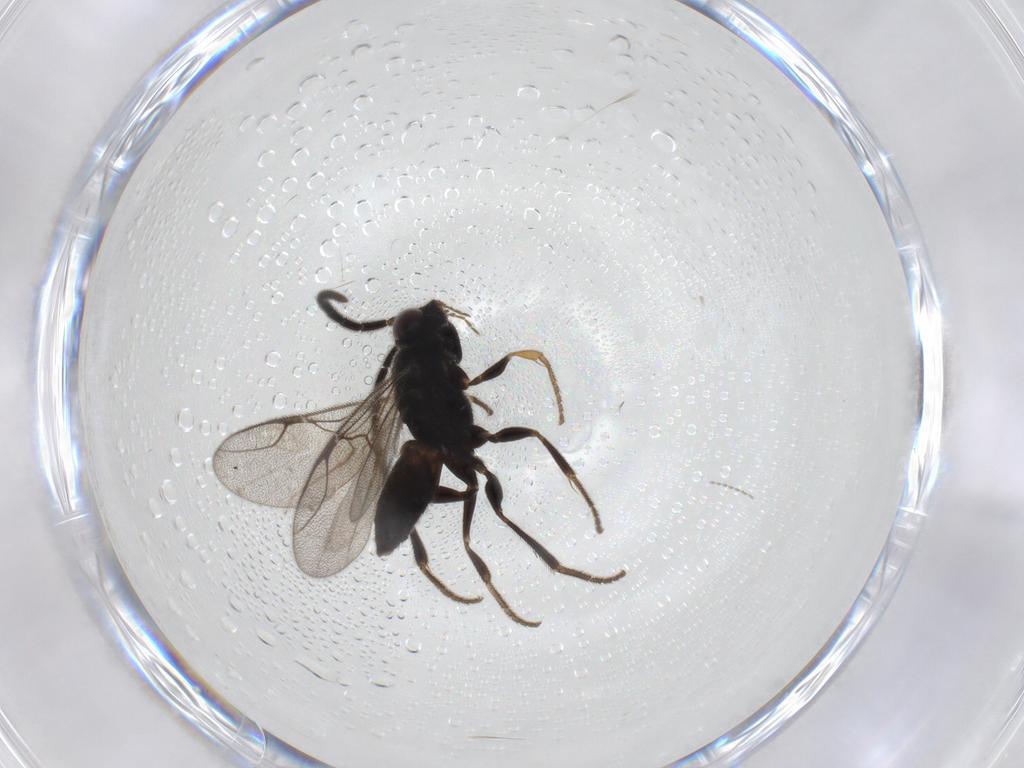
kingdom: Animalia
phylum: Arthropoda
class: Insecta
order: Hymenoptera
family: Dryinidae
